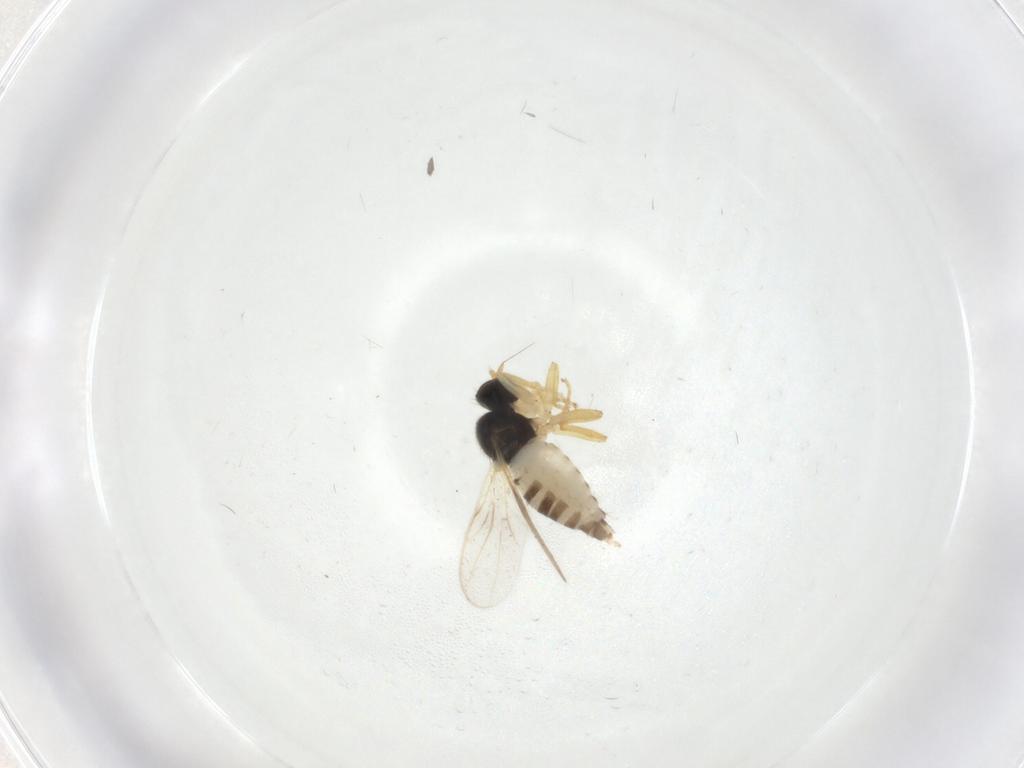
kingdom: Animalia
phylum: Arthropoda
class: Insecta
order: Diptera
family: Hybotidae
